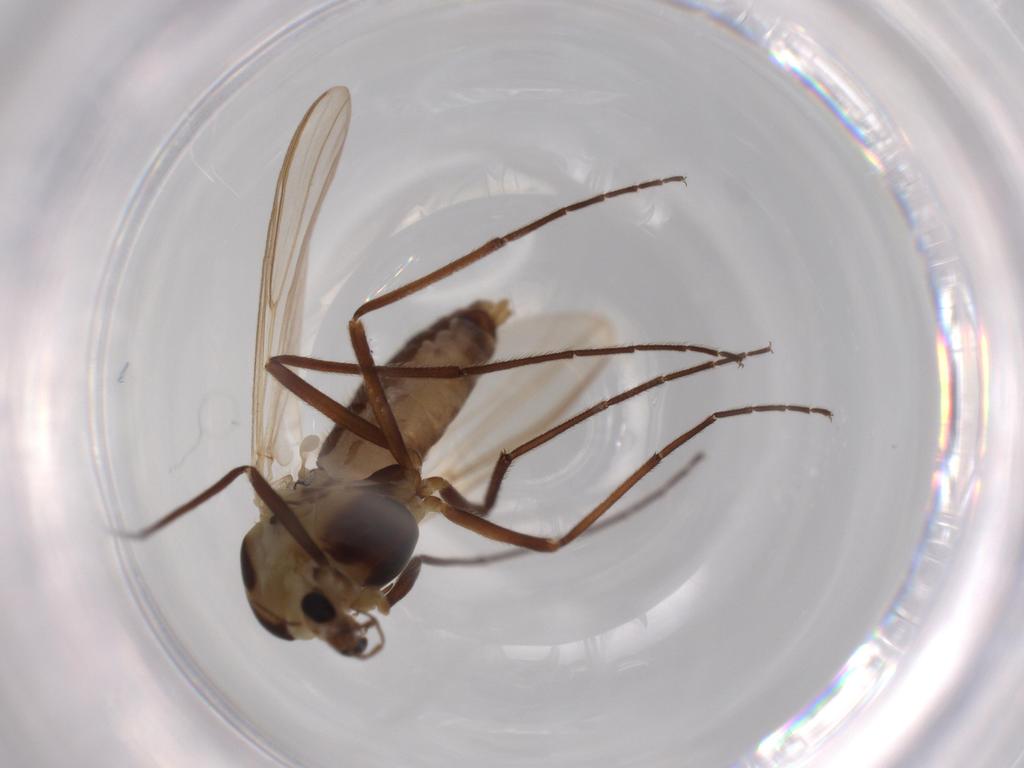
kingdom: Animalia
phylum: Arthropoda
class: Insecta
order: Diptera
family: Cecidomyiidae
